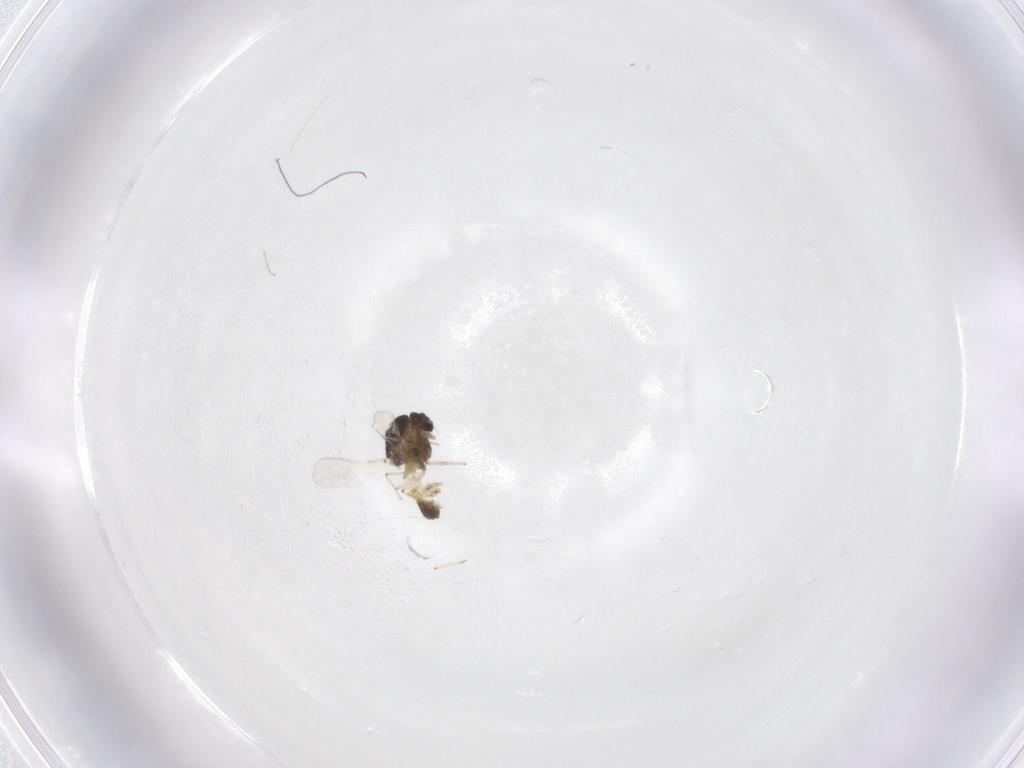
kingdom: Animalia
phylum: Arthropoda
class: Insecta
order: Diptera
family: Chironomidae
